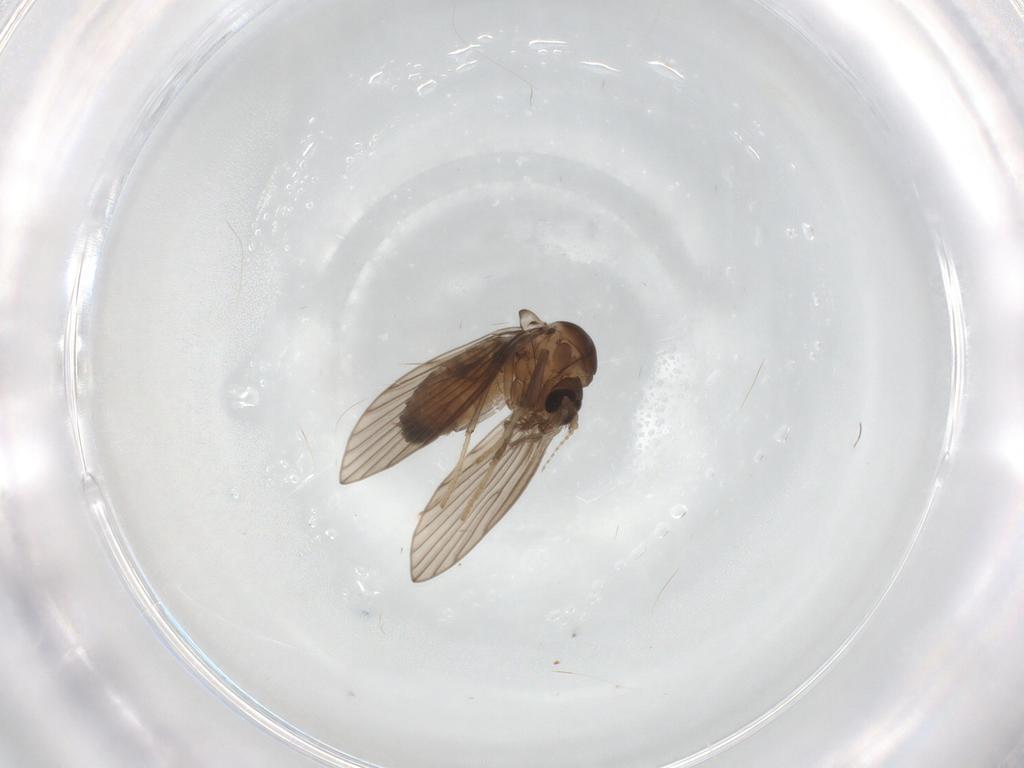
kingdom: Animalia
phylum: Arthropoda
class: Insecta
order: Diptera
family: Psychodidae
